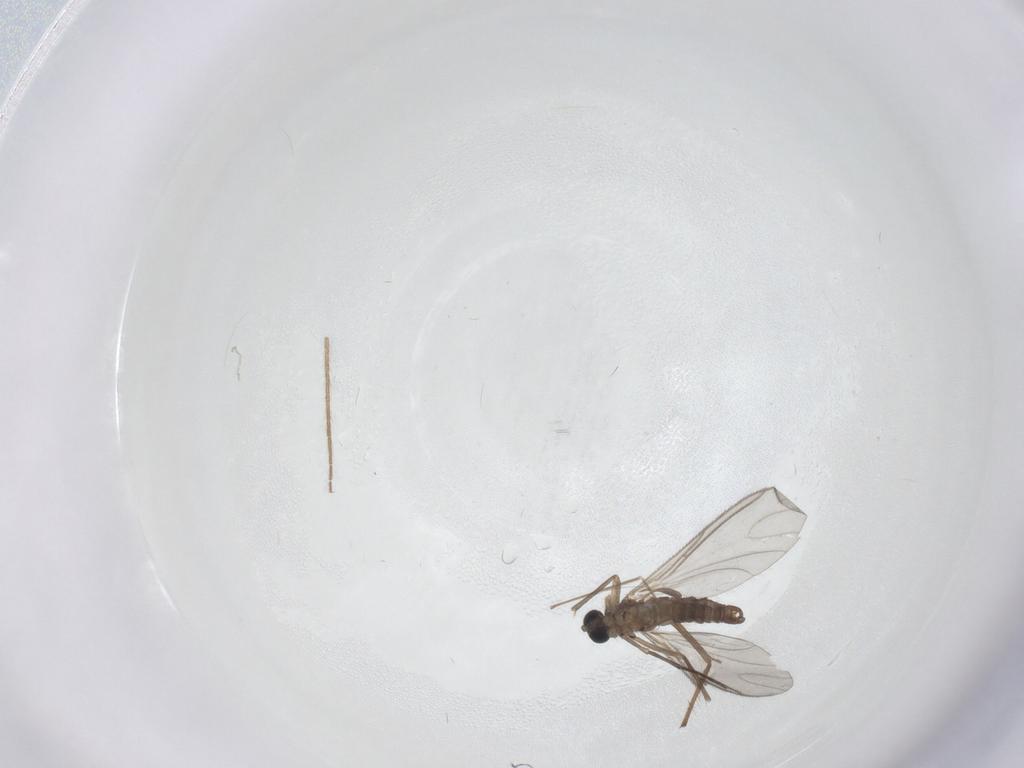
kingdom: Animalia
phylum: Arthropoda
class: Insecta
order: Diptera
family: Chironomidae
